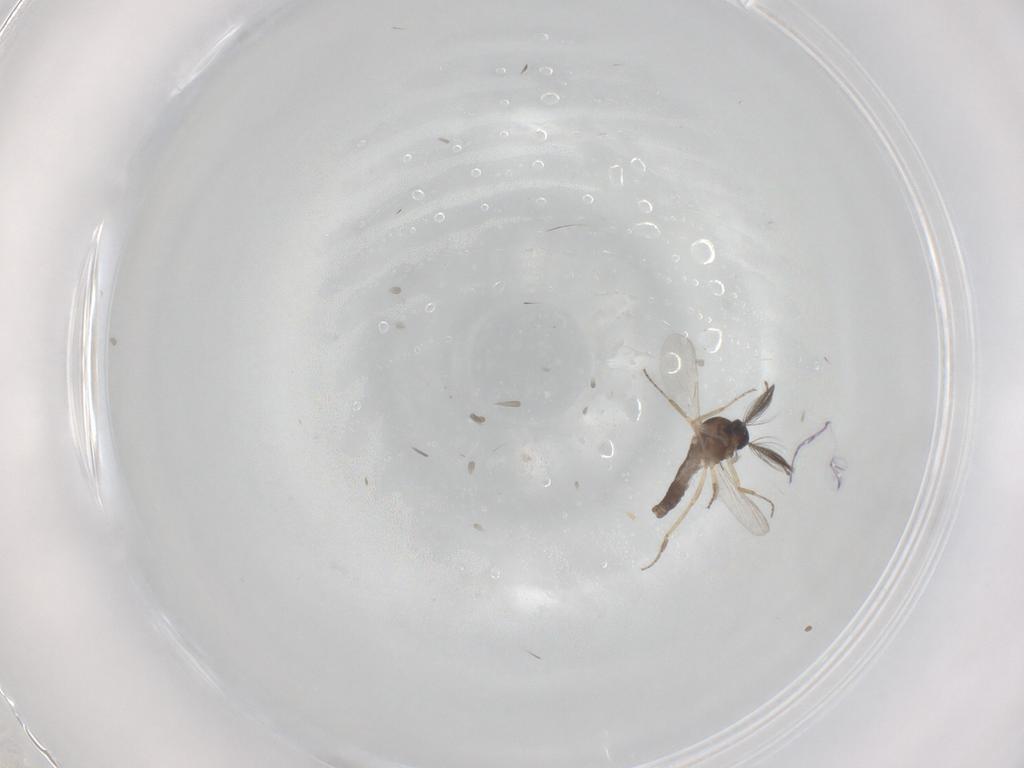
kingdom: Animalia
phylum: Arthropoda
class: Insecta
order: Diptera
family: Ceratopogonidae
